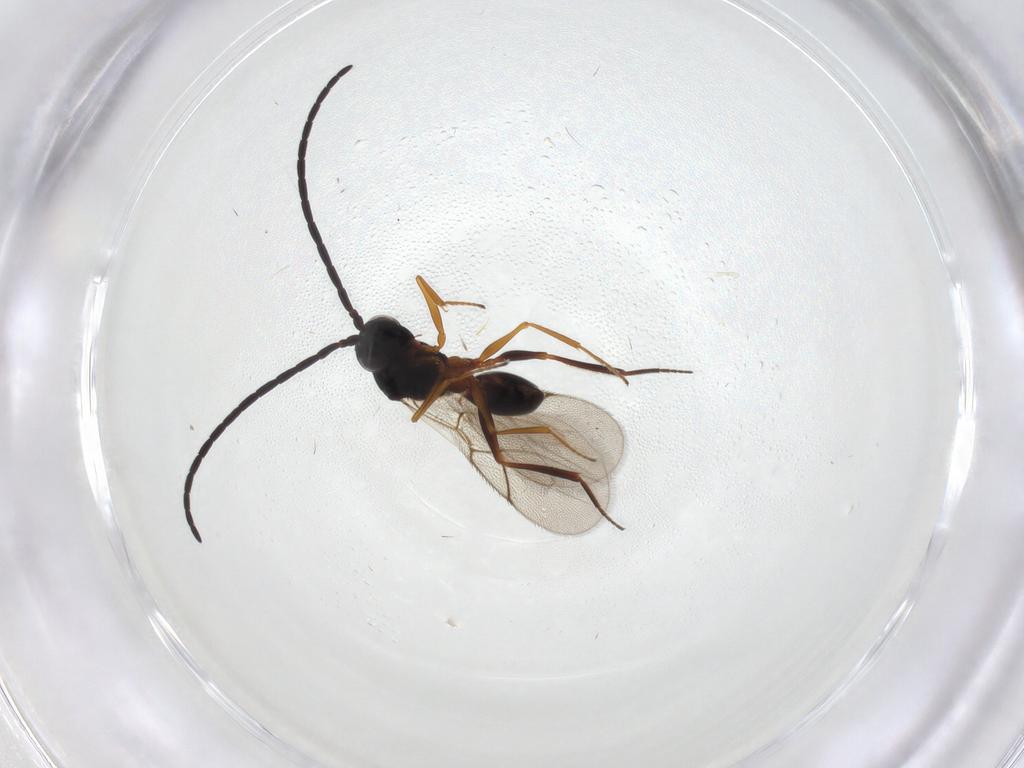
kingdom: Animalia
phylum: Arthropoda
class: Insecta
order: Hymenoptera
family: Figitidae
